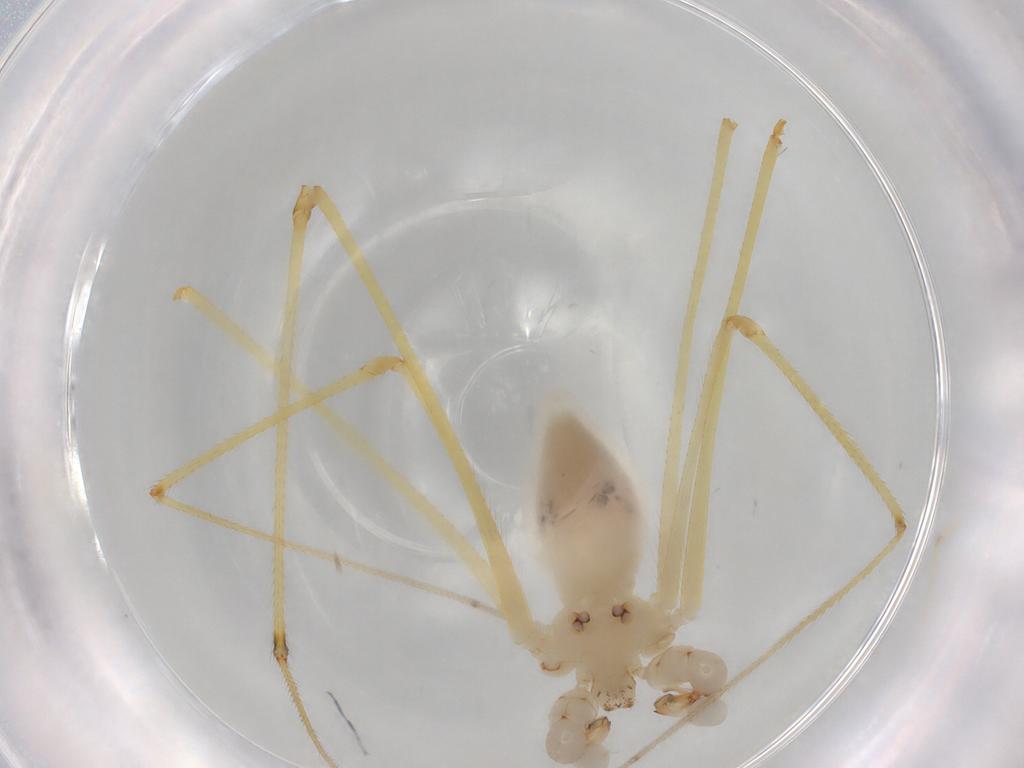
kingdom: Animalia
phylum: Arthropoda
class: Arachnida
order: Araneae
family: Pholcidae
